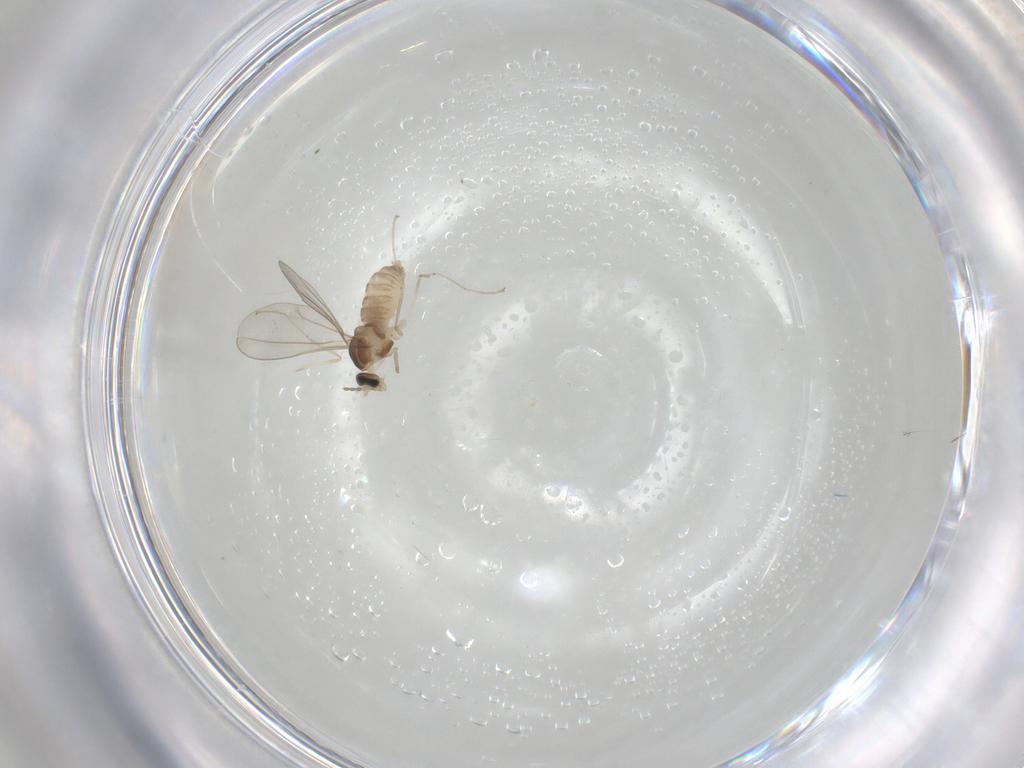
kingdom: Animalia
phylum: Arthropoda
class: Insecta
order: Diptera
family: Cecidomyiidae
